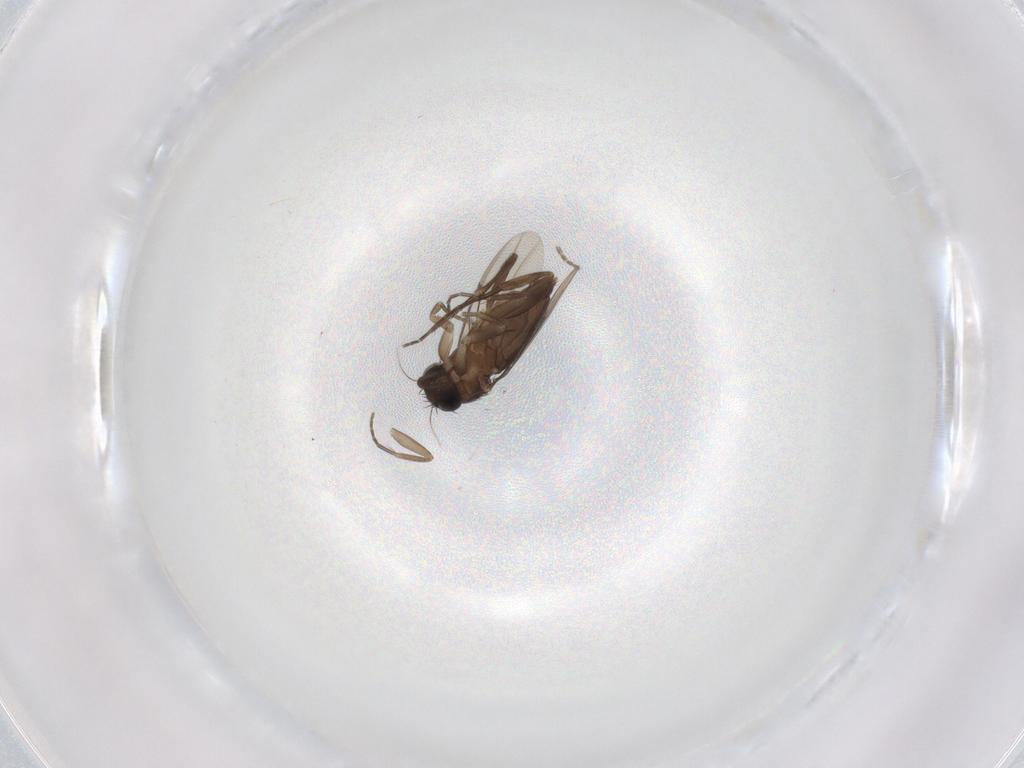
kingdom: Animalia
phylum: Arthropoda
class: Insecta
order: Diptera
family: Phoridae
